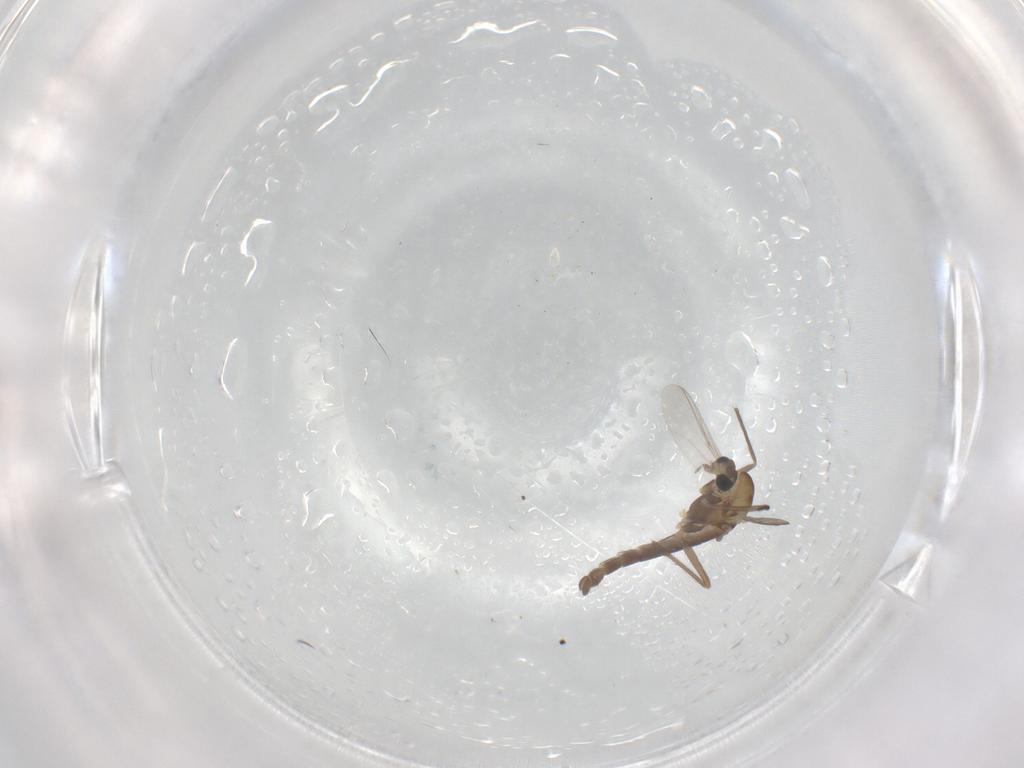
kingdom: Animalia
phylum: Arthropoda
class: Insecta
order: Diptera
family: Chironomidae
